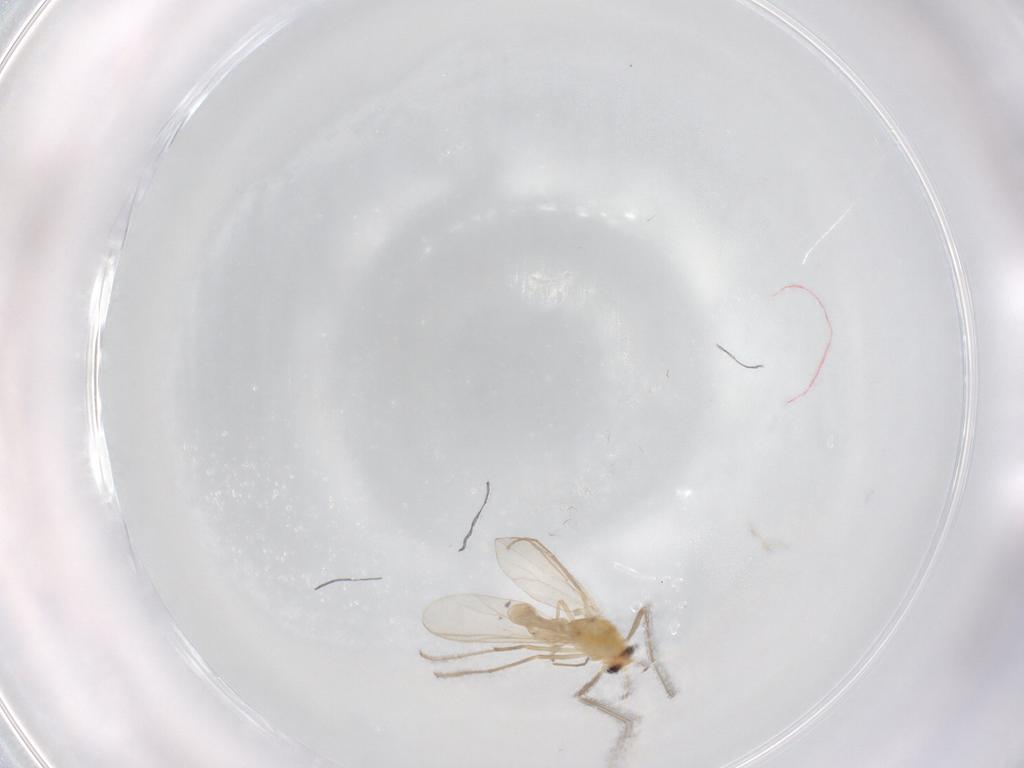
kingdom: Animalia
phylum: Arthropoda
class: Insecta
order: Diptera
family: Chironomidae
